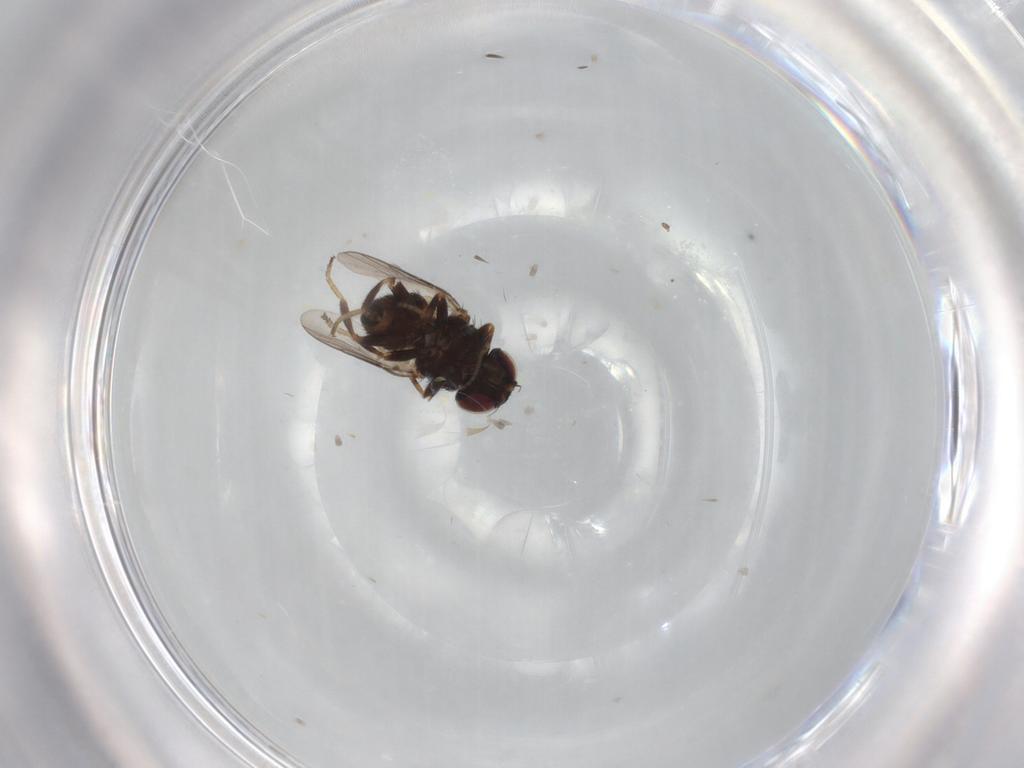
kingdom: Animalia
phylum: Arthropoda
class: Insecta
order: Diptera
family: Chloropidae
